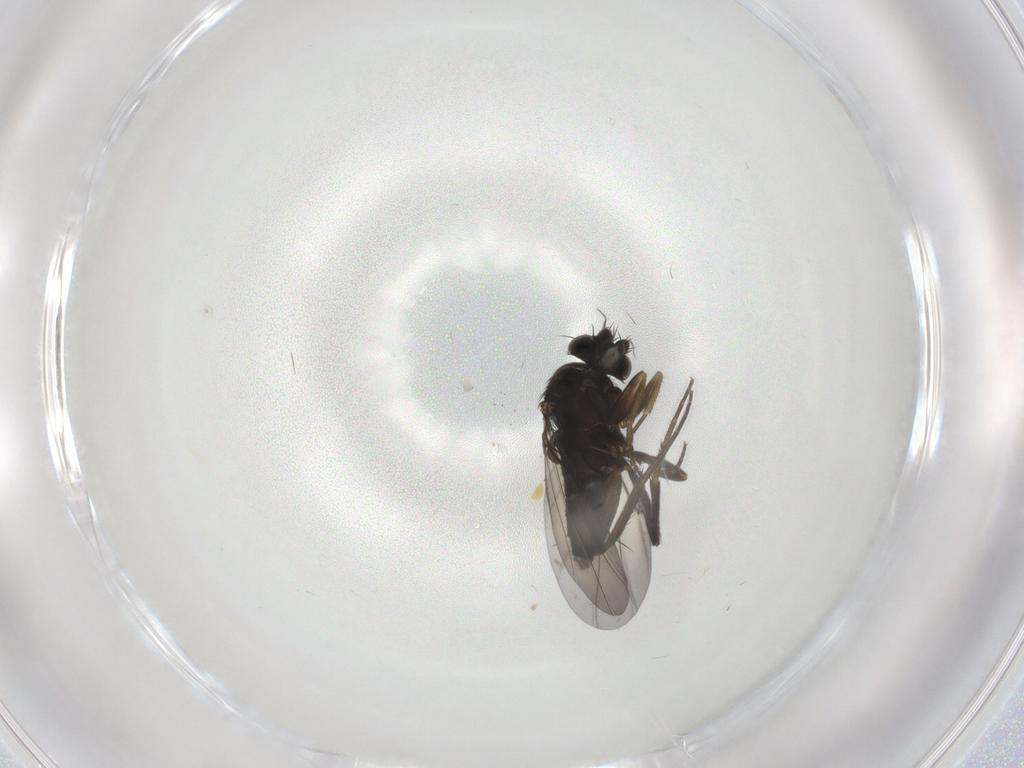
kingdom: Animalia
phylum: Arthropoda
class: Insecta
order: Diptera
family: Phoridae
